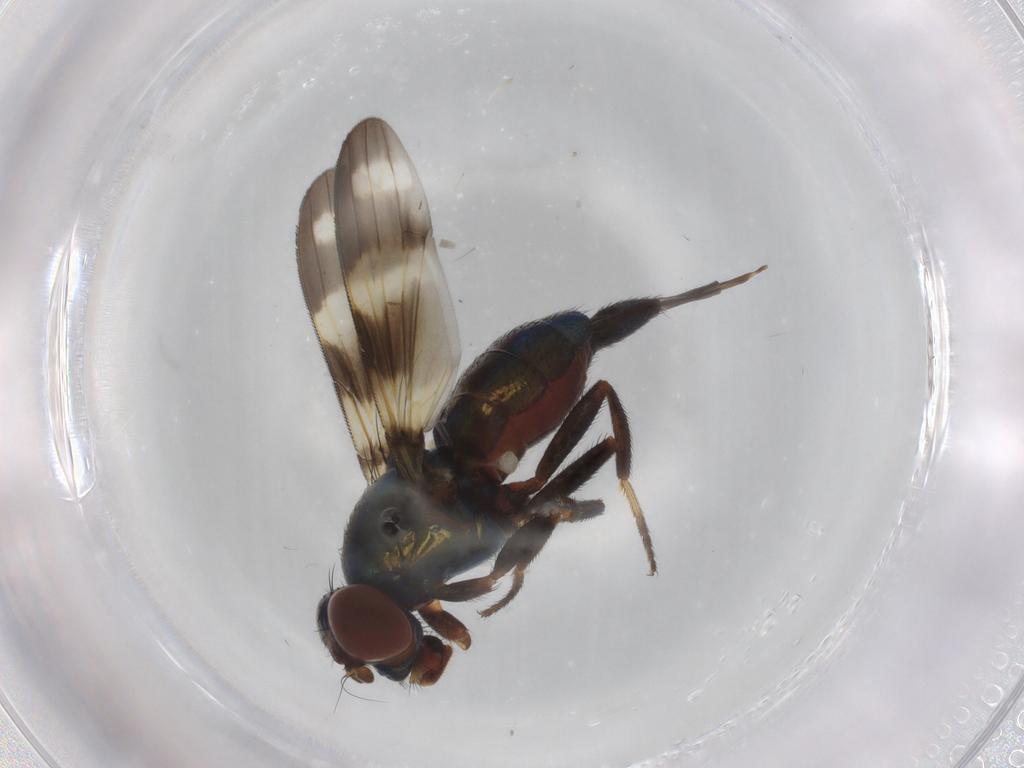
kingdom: Animalia
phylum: Arthropoda
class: Insecta
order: Diptera
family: Ulidiidae
